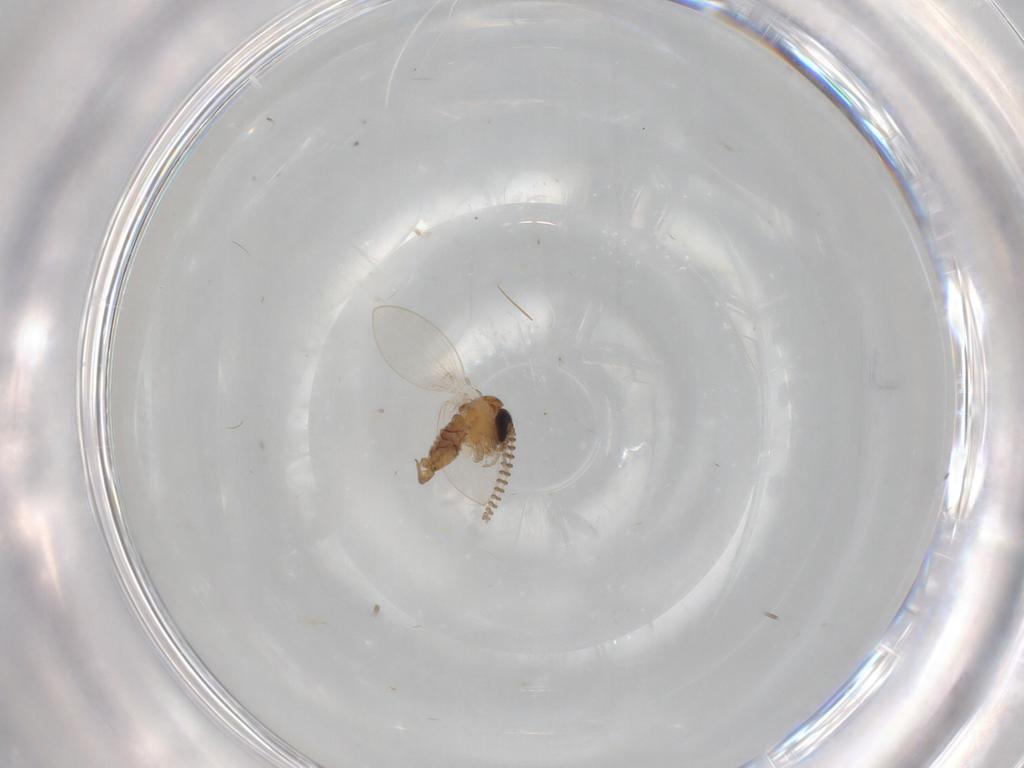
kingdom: Animalia
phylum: Arthropoda
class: Insecta
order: Diptera
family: Psychodidae
